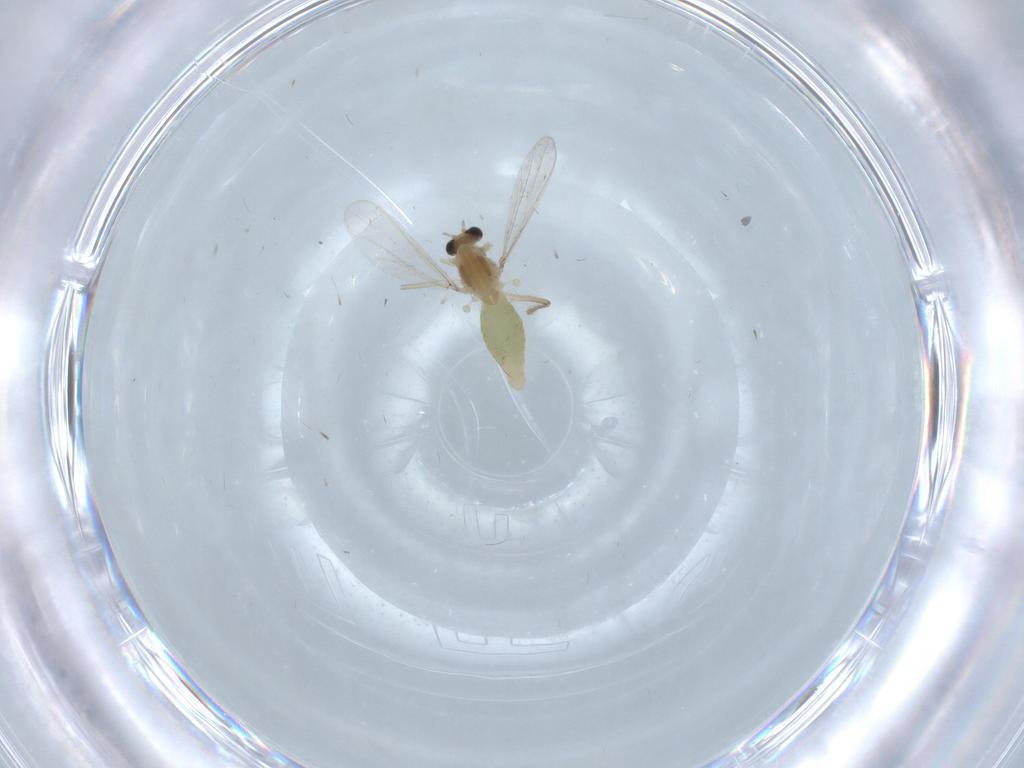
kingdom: Animalia
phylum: Arthropoda
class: Insecta
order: Diptera
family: Chironomidae
